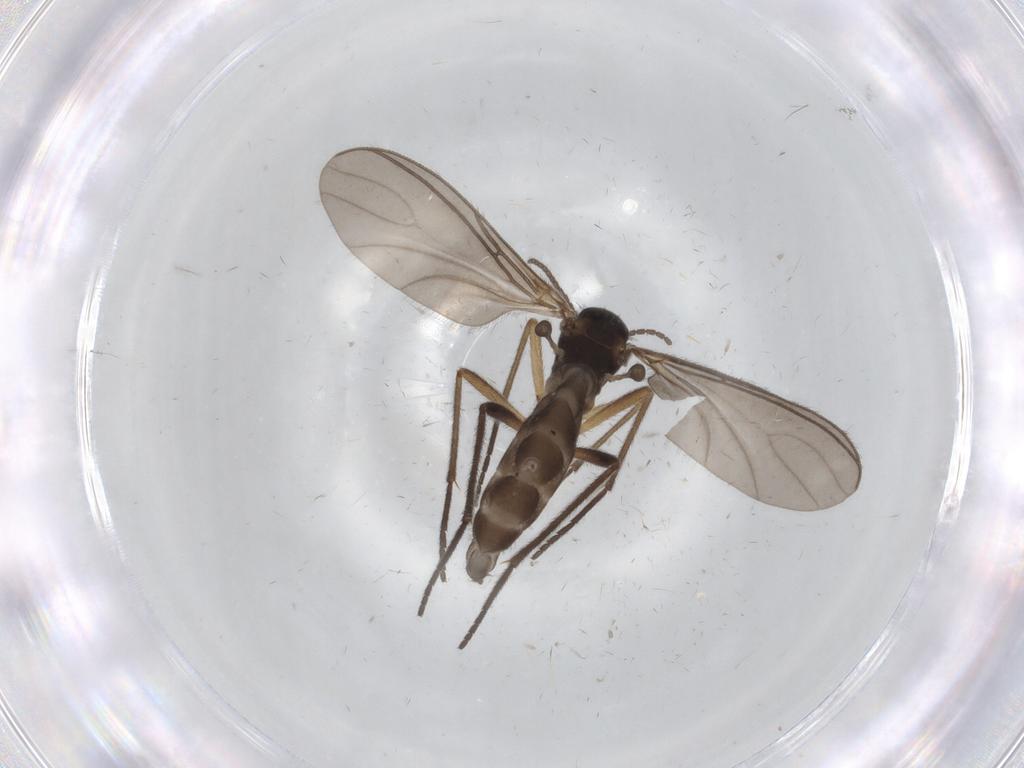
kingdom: Animalia
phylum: Arthropoda
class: Insecta
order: Diptera
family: Sciaridae
